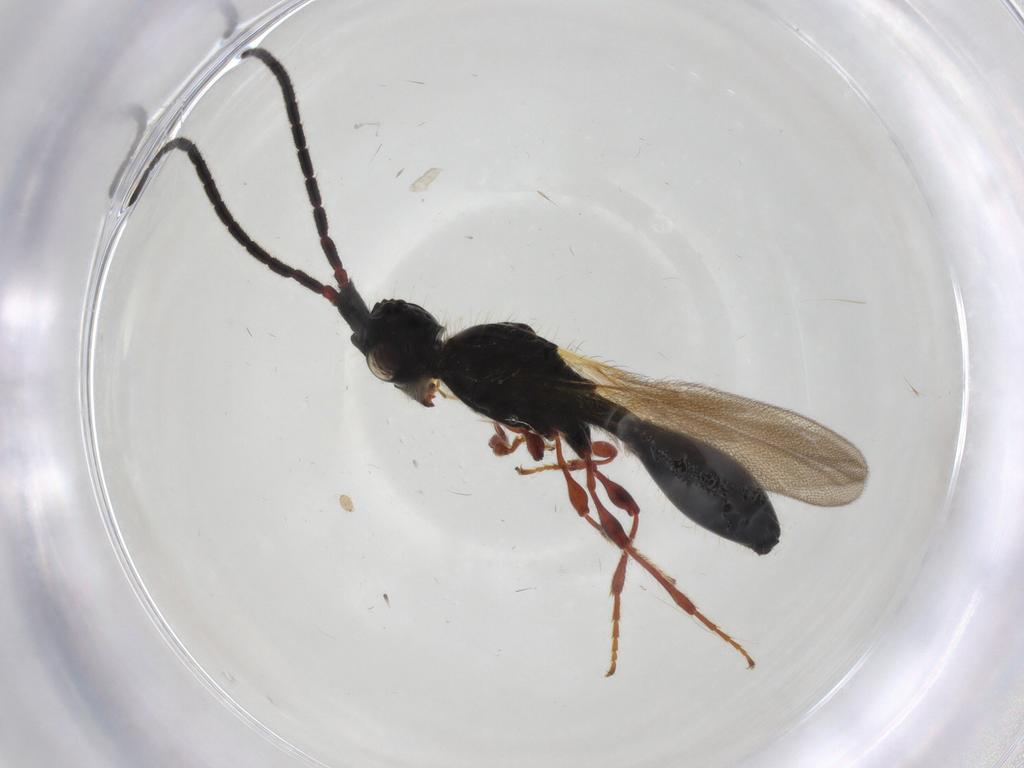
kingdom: Animalia
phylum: Arthropoda
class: Insecta
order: Hymenoptera
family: Diapriidae
